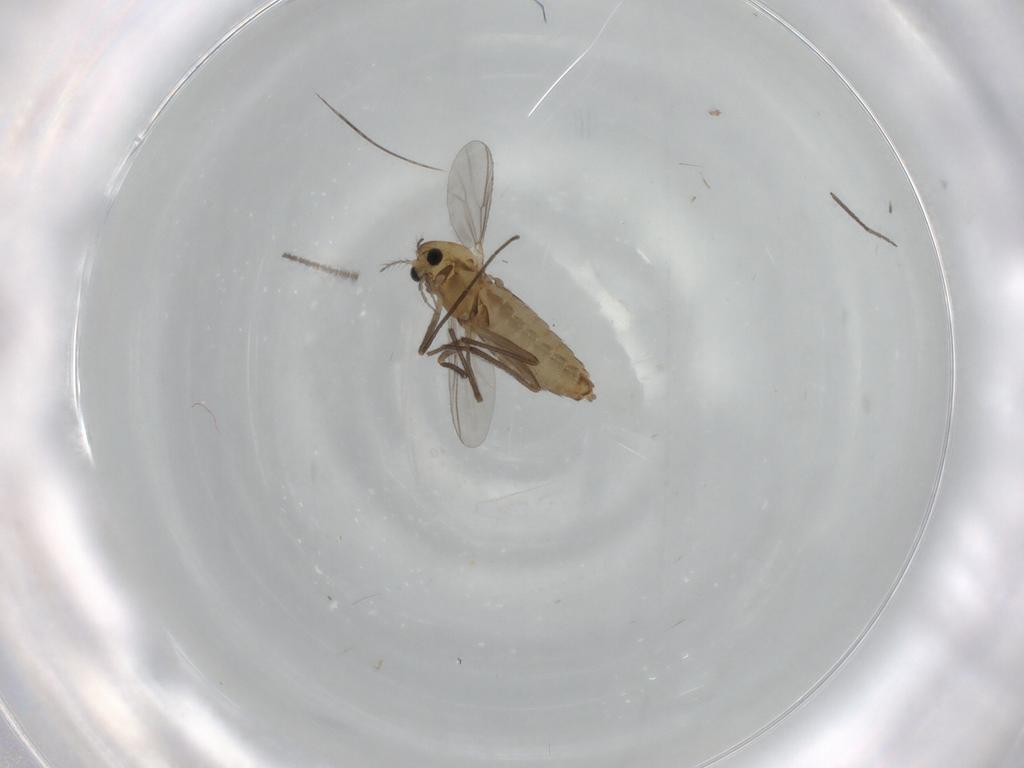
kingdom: Animalia
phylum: Arthropoda
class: Insecta
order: Diptera
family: Chironomidae
